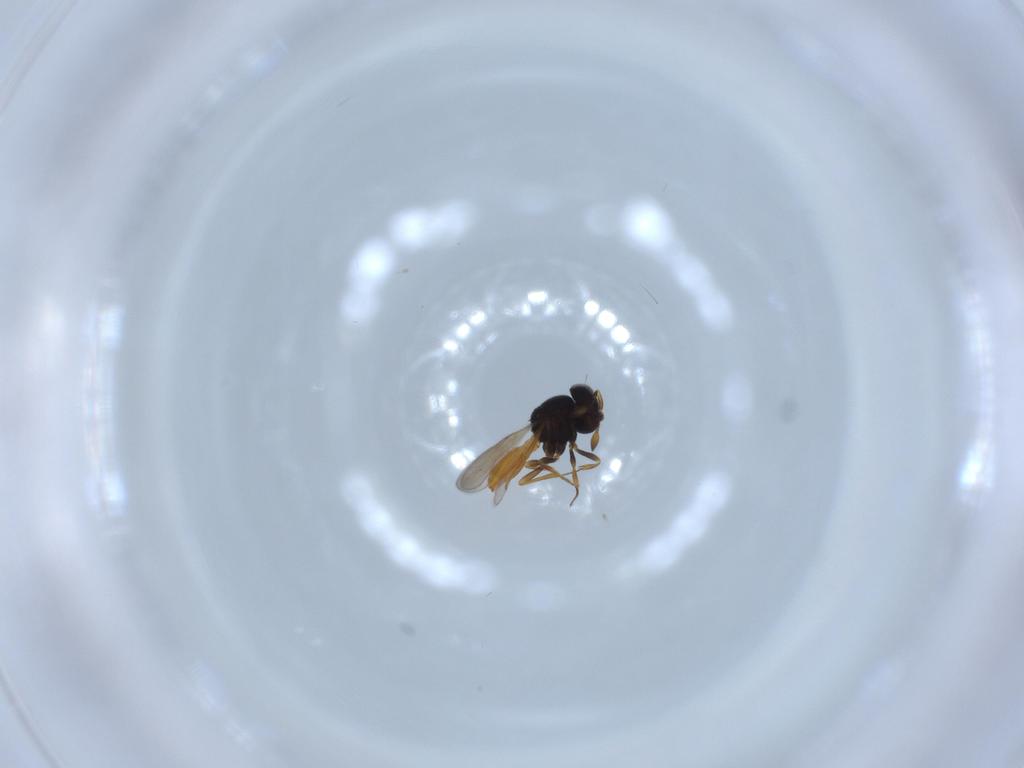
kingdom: Animalia
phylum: Arthropoda
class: Insecta
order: Hymenoptera
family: Scelionidae
